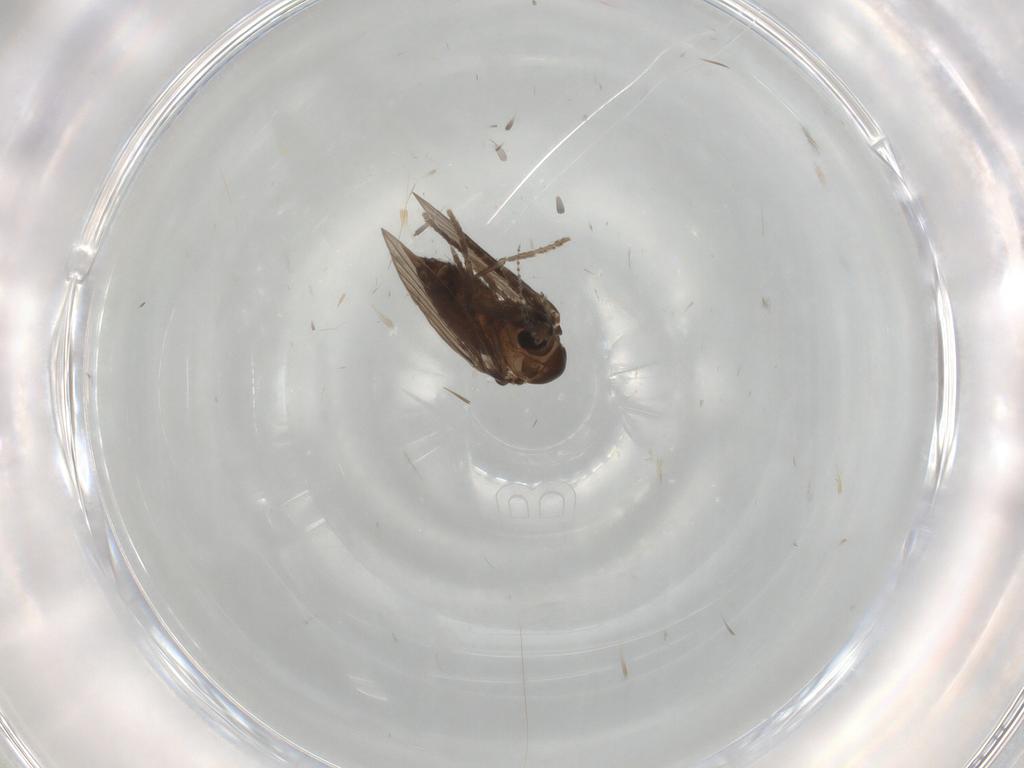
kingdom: Animalia
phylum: Arthropoda
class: Insecta
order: Diptera
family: Psychodidae
